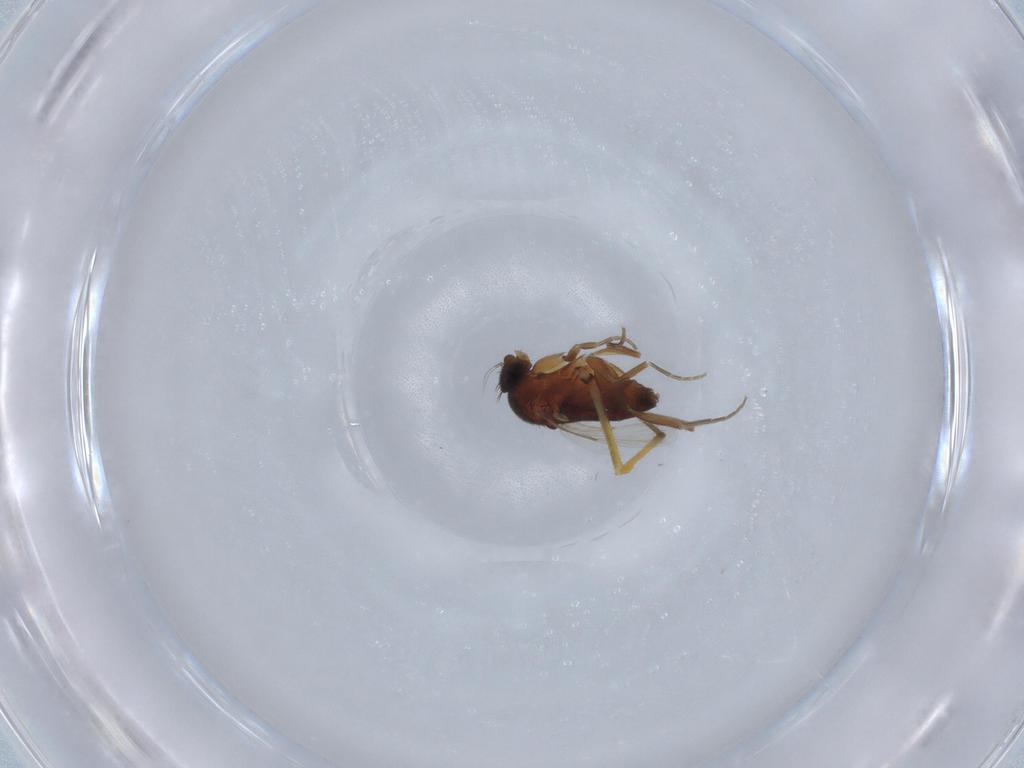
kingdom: Animalia
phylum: Arthropoda
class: Insecta
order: Diptera
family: Phoridae
